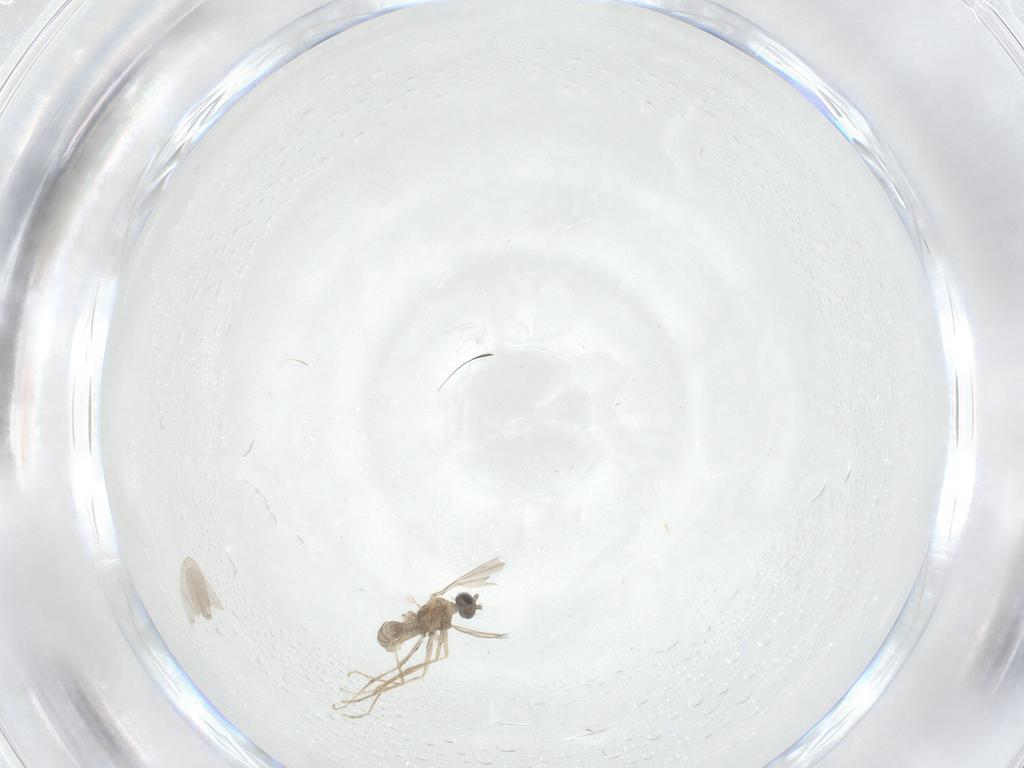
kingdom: Animalia
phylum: Arthropoda
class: Insecta
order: Diptera
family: Cecidomyiidae
